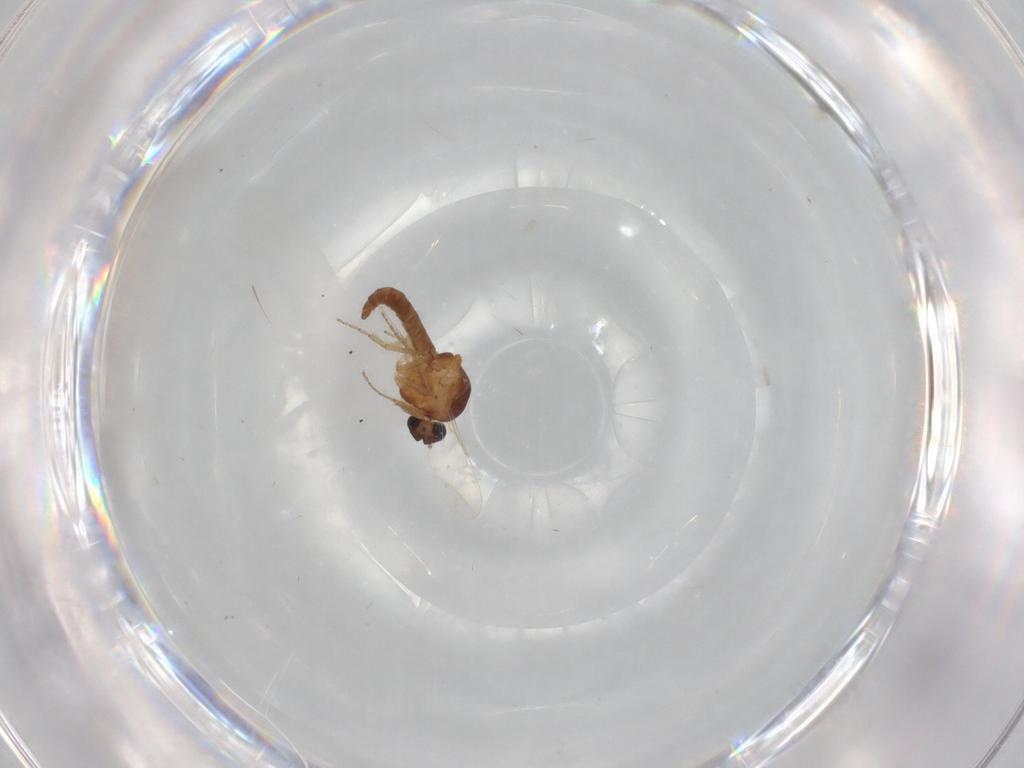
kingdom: Animalia
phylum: Arthropoda
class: Insecta
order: Diptera
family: Ceratopogonidae
